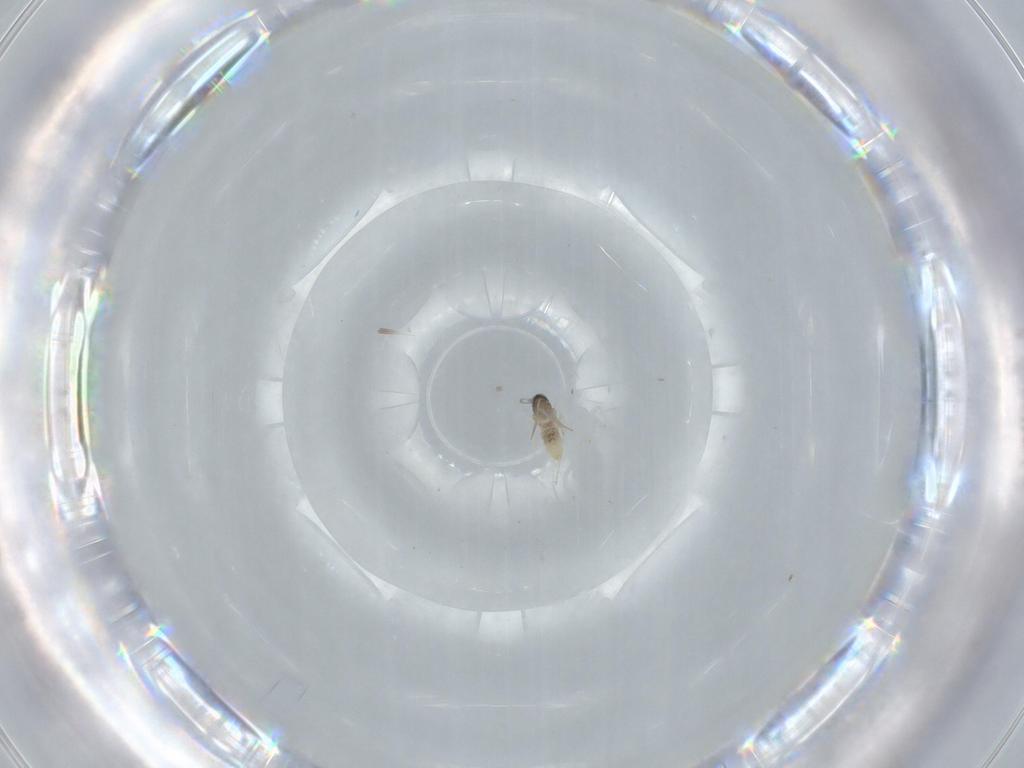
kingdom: Animalia
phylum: Arthropoda
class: Insecta
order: Diptera
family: Cecidomyiidae
